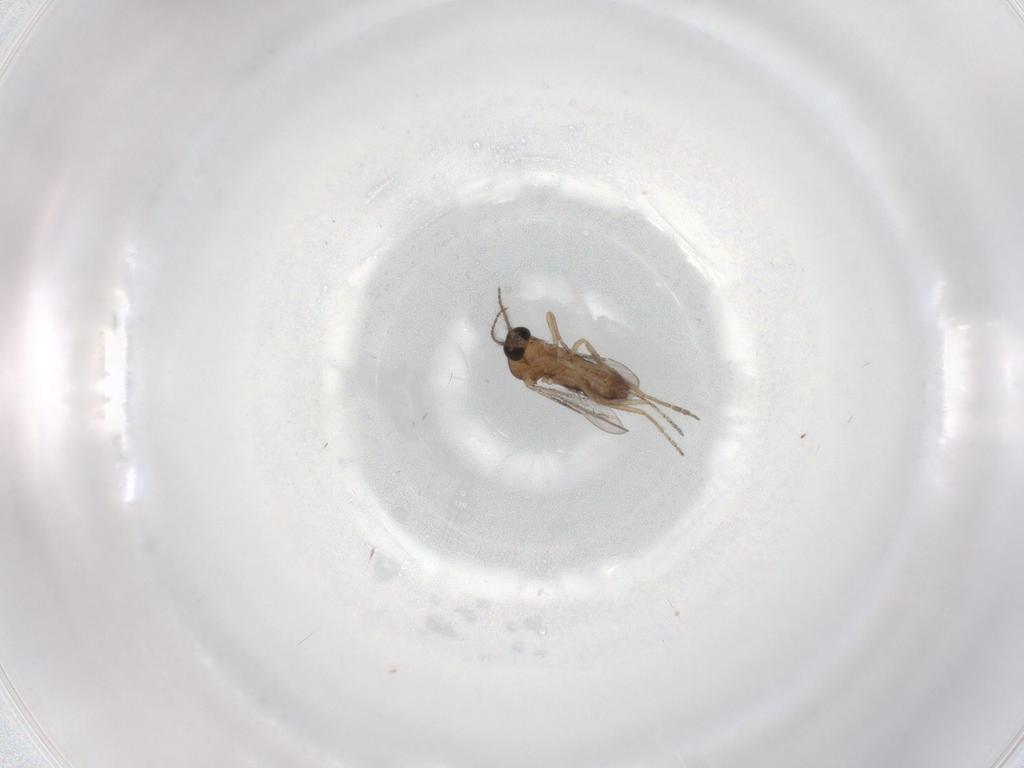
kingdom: Animalia
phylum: Arthropoda
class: Insecta
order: Diptera
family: Ceratopogonidae
